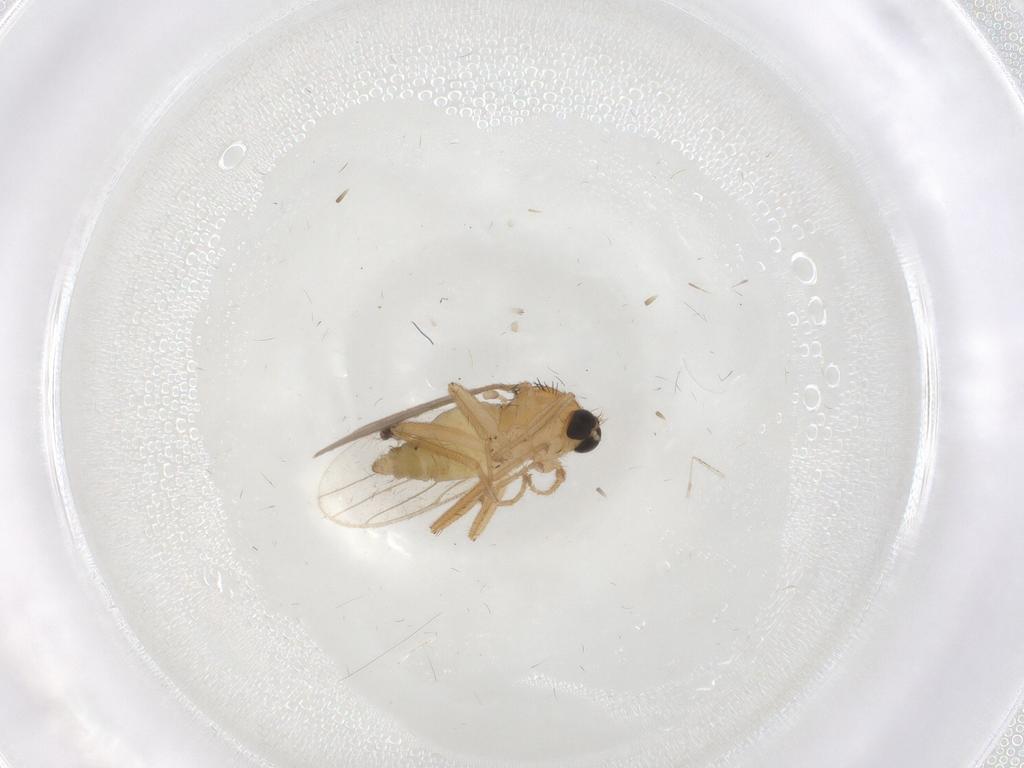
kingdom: Animalia
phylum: Arthropoda
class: Insecta
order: Diptera
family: Hybotidae
